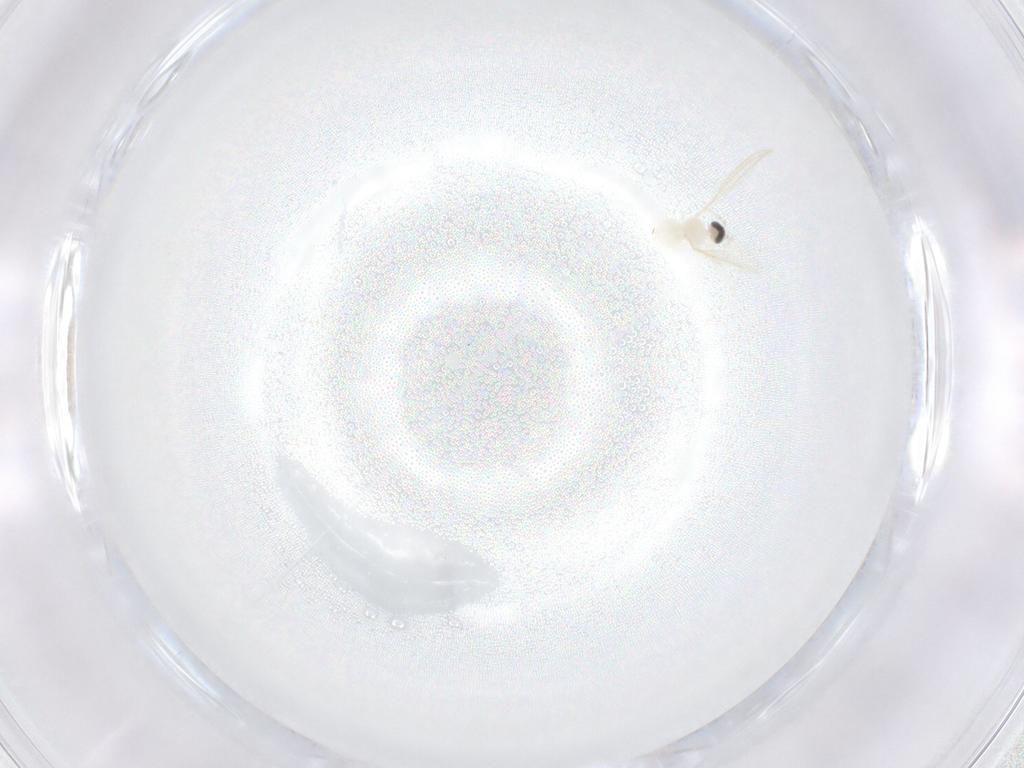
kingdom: Animalia
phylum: Arthropoda
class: Insecta
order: Diptera
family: Cecidomyiidae
